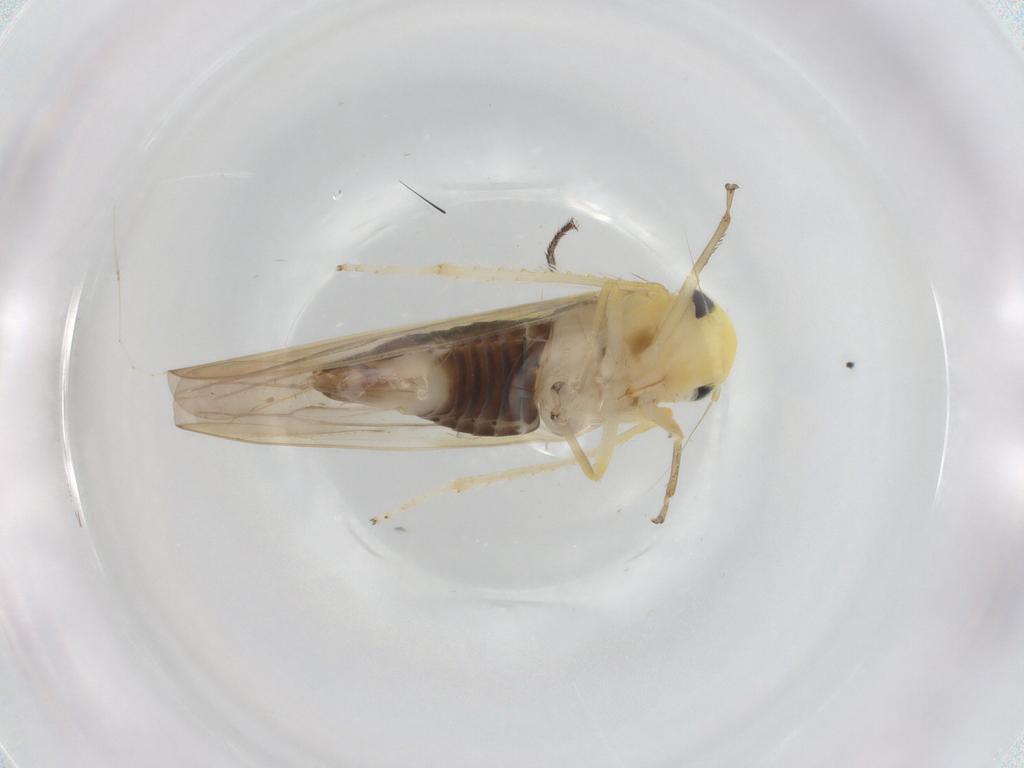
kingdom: Animalia
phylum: Arthropoda
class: Insecta
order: Hemiptera
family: Cicadellidae
